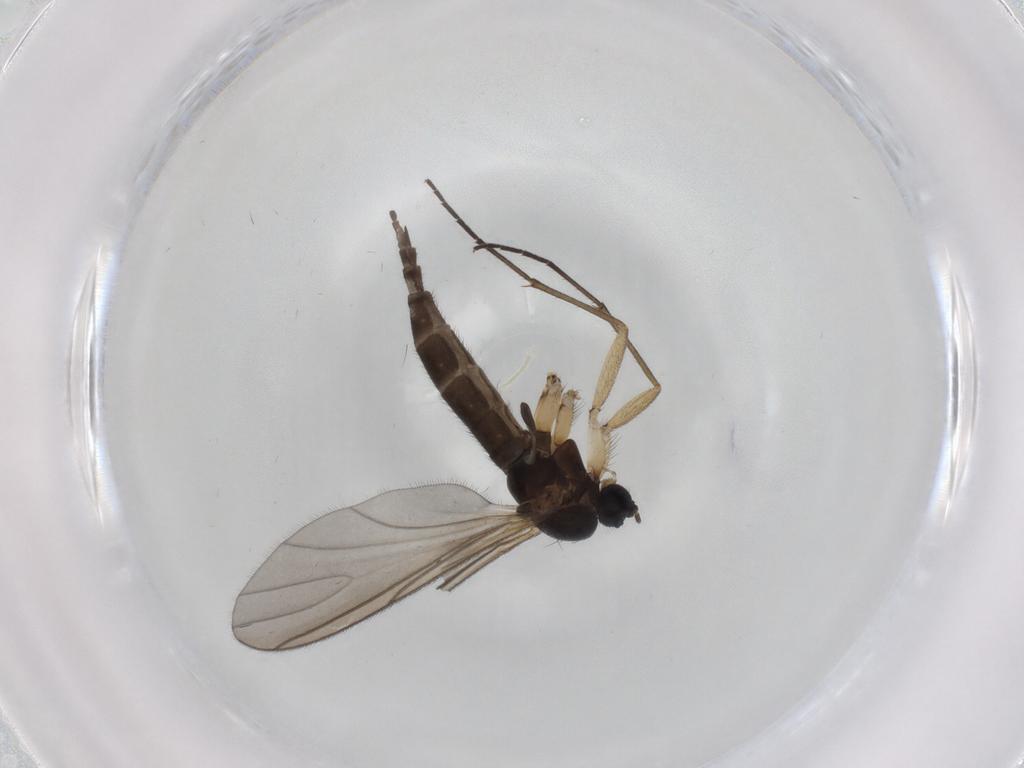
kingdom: Animalia
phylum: Arthropoda
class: Insecta
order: Diptera
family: Sciaridae
